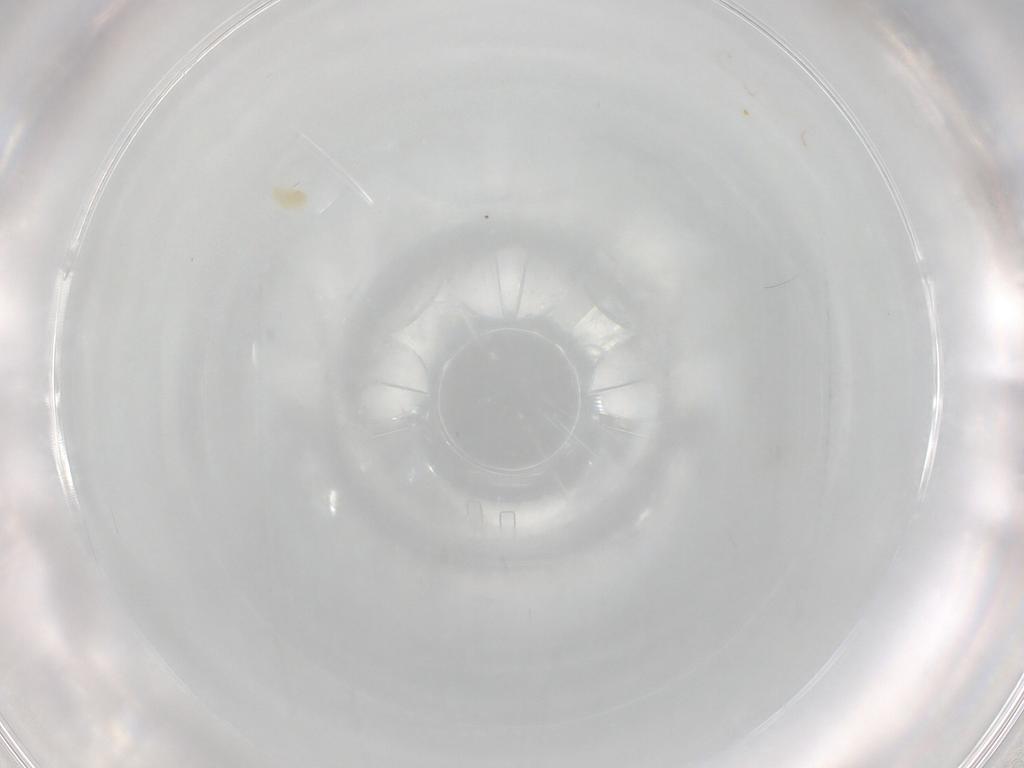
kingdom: Animalia
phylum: Arthropoda
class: Arachnida
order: Trombidiformes
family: Eupodidae
